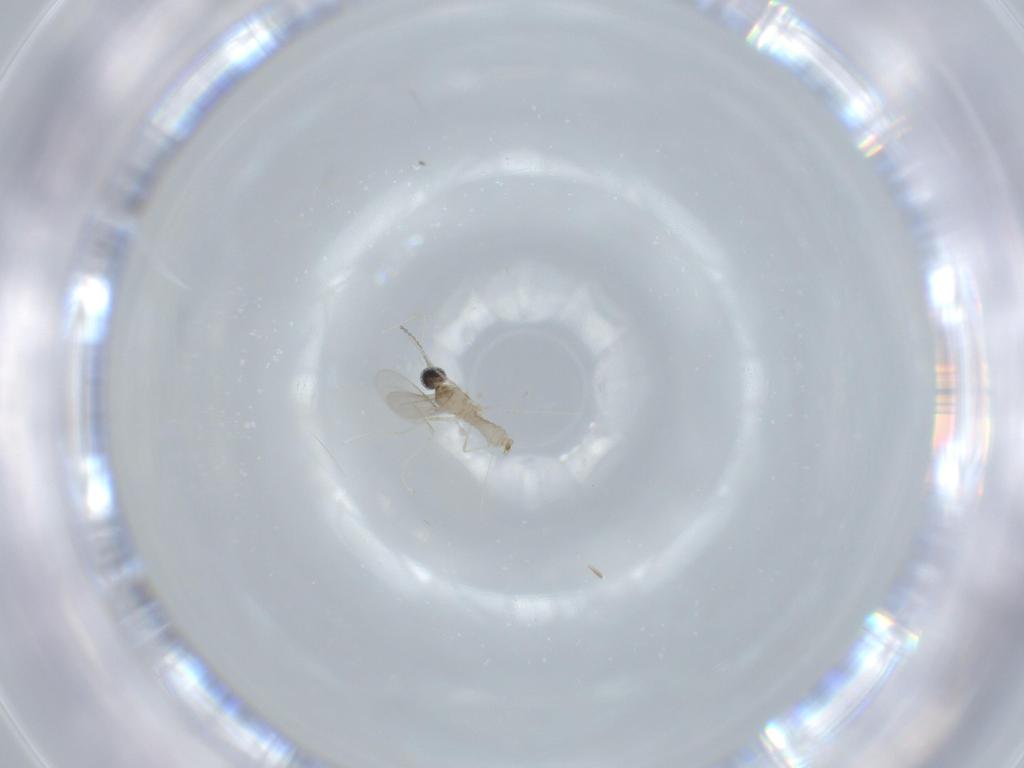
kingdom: Animalia
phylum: Arthropoda
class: Insecta
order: Diptera
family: Cecidomyiidae
